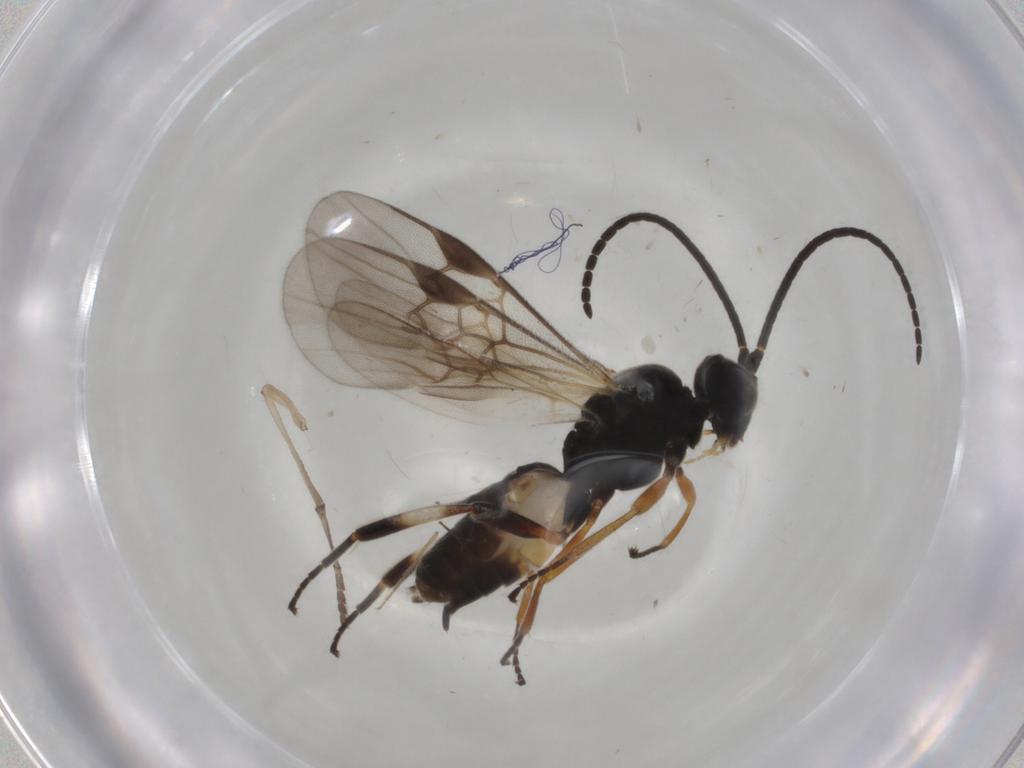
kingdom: Animalia
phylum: Arthropoda
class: Insecta
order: Hymenoptera
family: Braconidae
